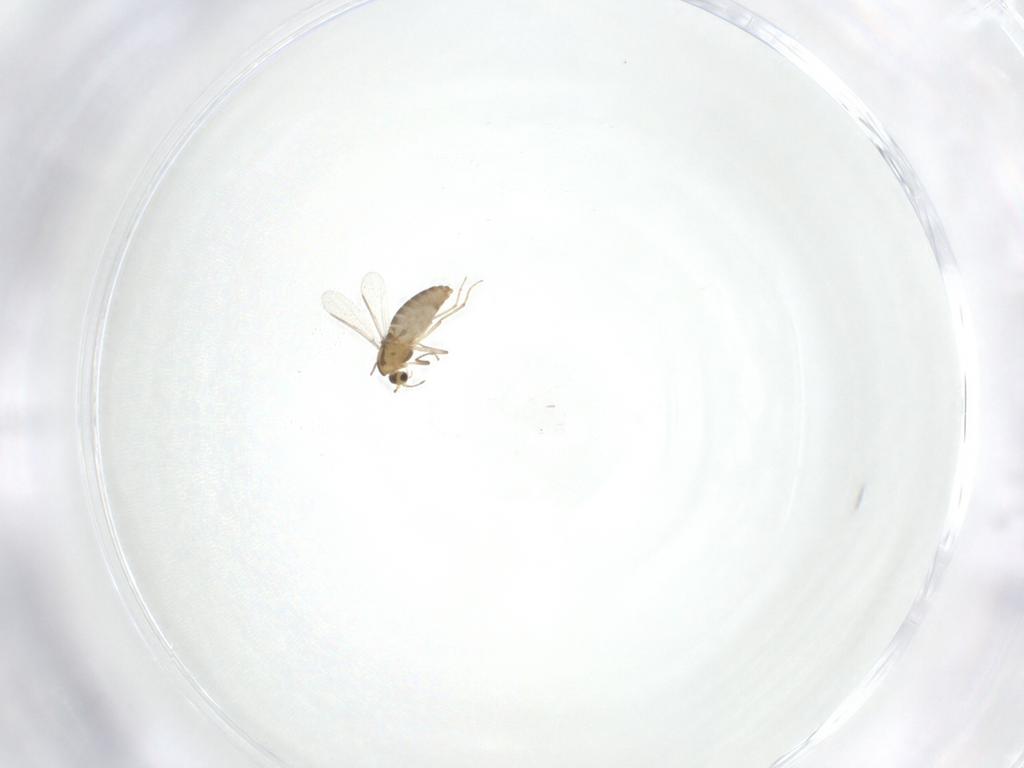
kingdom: Animalia
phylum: Arthropoda
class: Insecta
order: Diptera
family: Chironomidae
